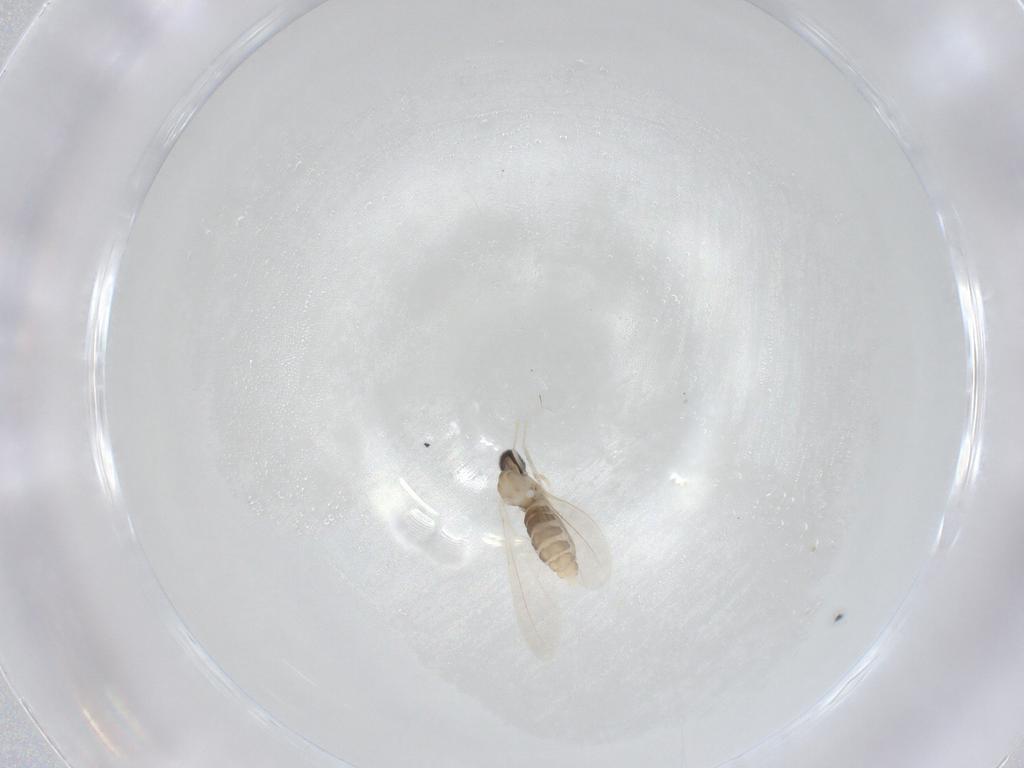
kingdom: Animalia
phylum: Arthropoda
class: Insecta
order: Diptera
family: Cecidomyiidae
